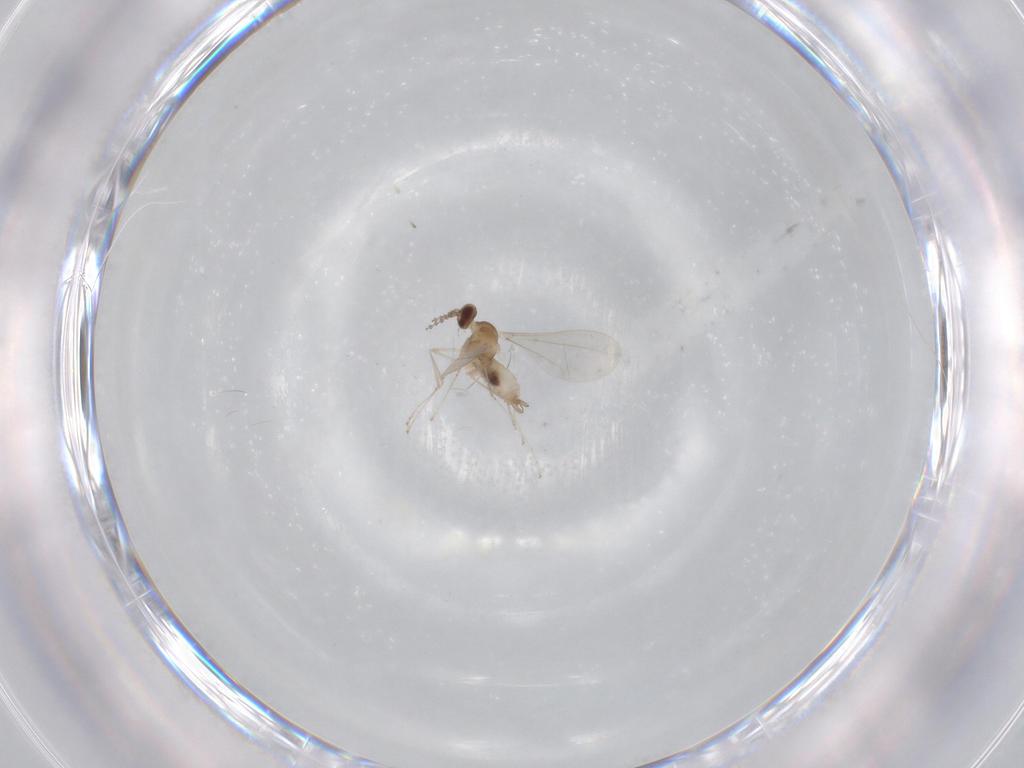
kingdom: Animalia
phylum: Arthropoda
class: Insecta
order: Diptera
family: Cecidomyiidae
